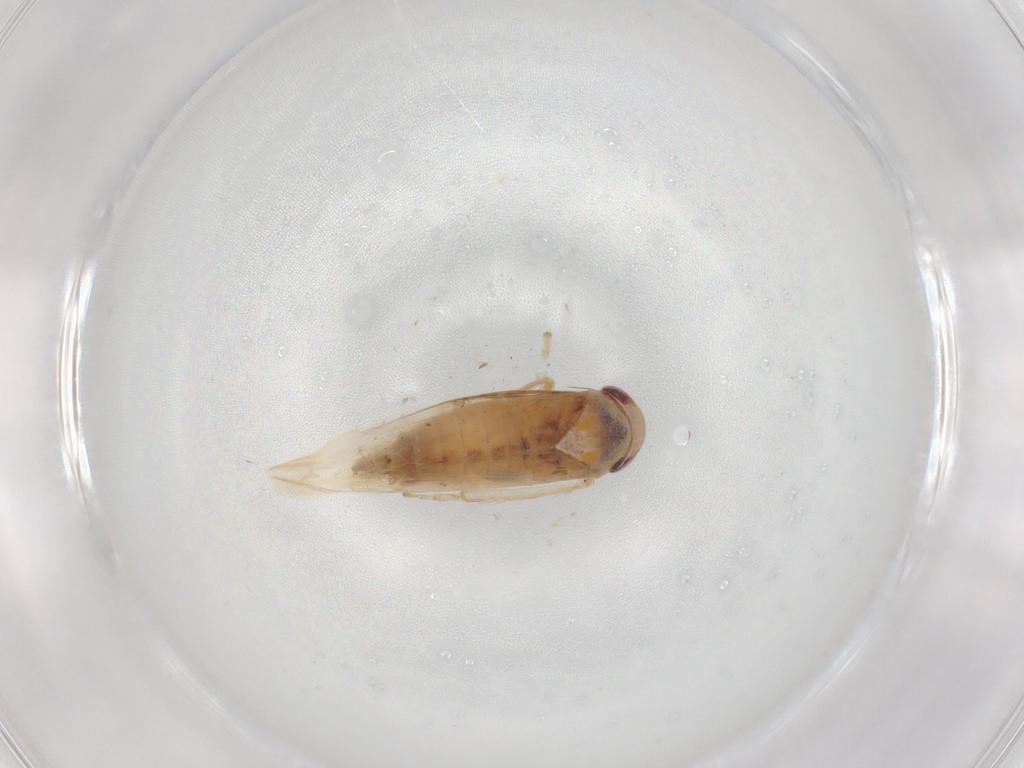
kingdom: Animalia
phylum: Arthropoda
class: Insecta
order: Hemiptera
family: Cicadellidae
